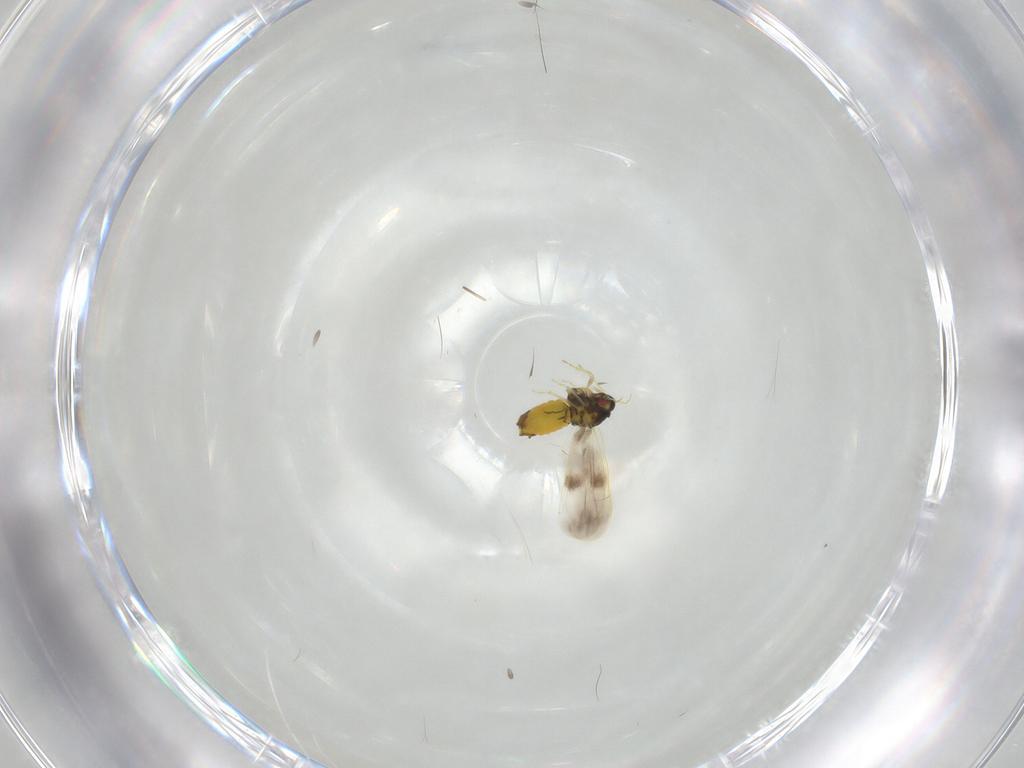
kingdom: Animalia
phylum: Arthropoda
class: Insecta
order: Hemiptera
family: Aleyrodidae
